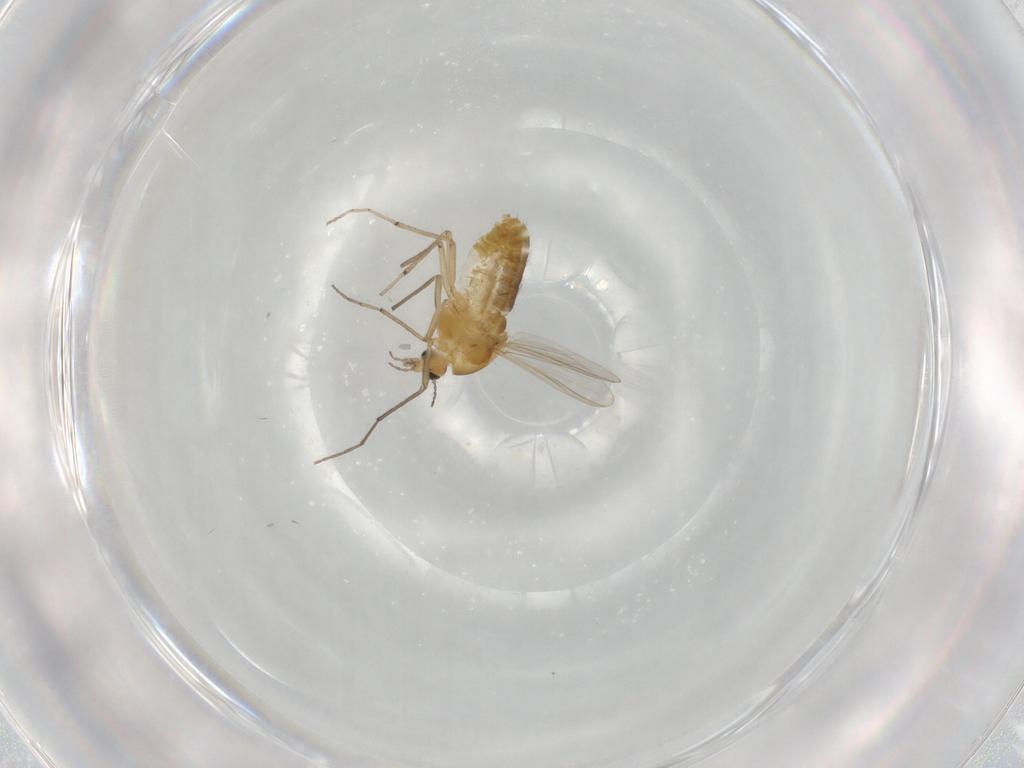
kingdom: Animalia
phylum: Arthropoda
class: Insecta
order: Diptera
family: Chironomidae
